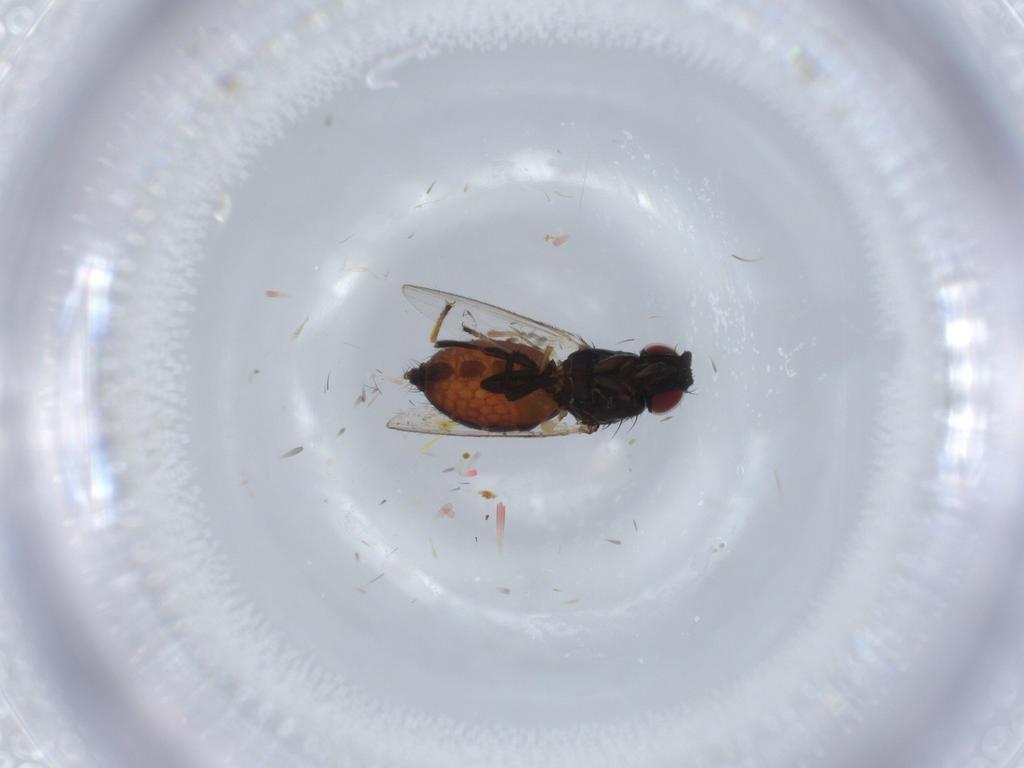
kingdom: Animalia
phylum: Arthropoda
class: Insecta
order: Diptera
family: Milichiidae
